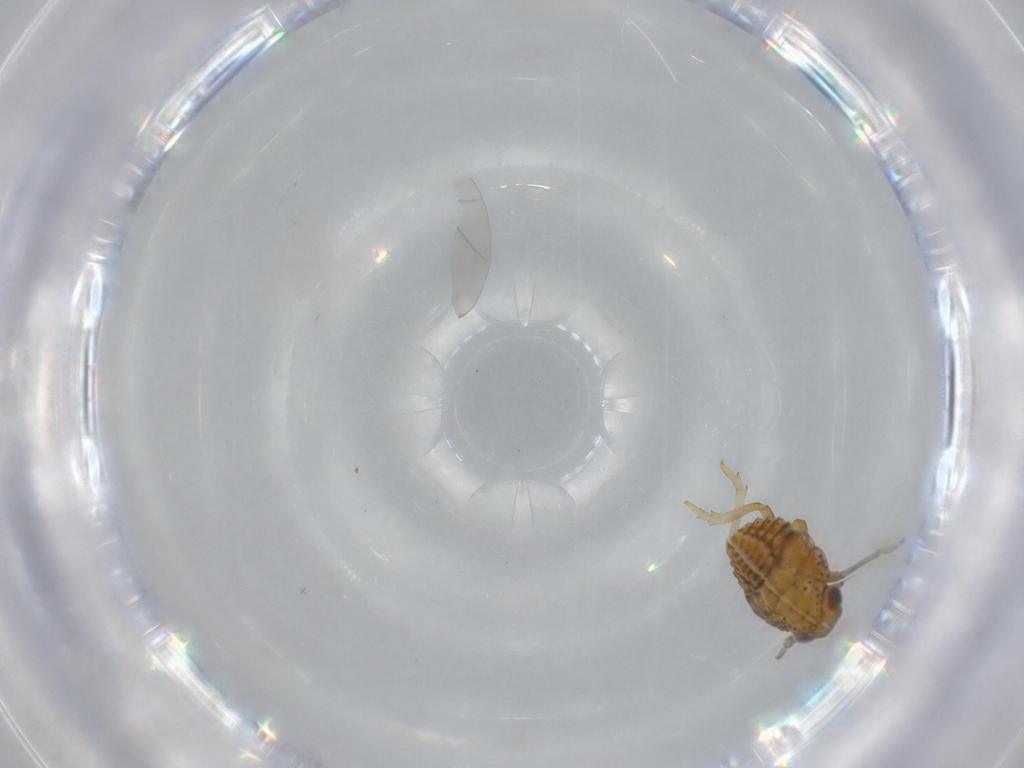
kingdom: Animalia
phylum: Arthropoda
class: Insecta
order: Hemiptera
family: Issidae
